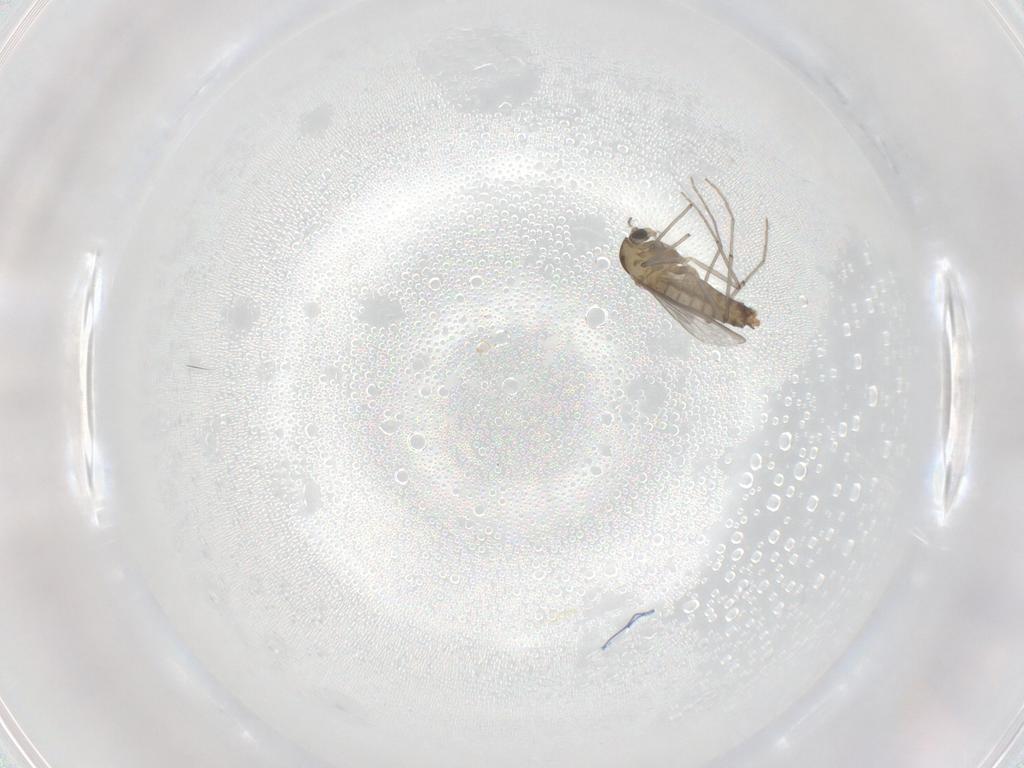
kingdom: Animalia
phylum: Arthropoda
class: Insecta
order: Diptera
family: Chironomidae
